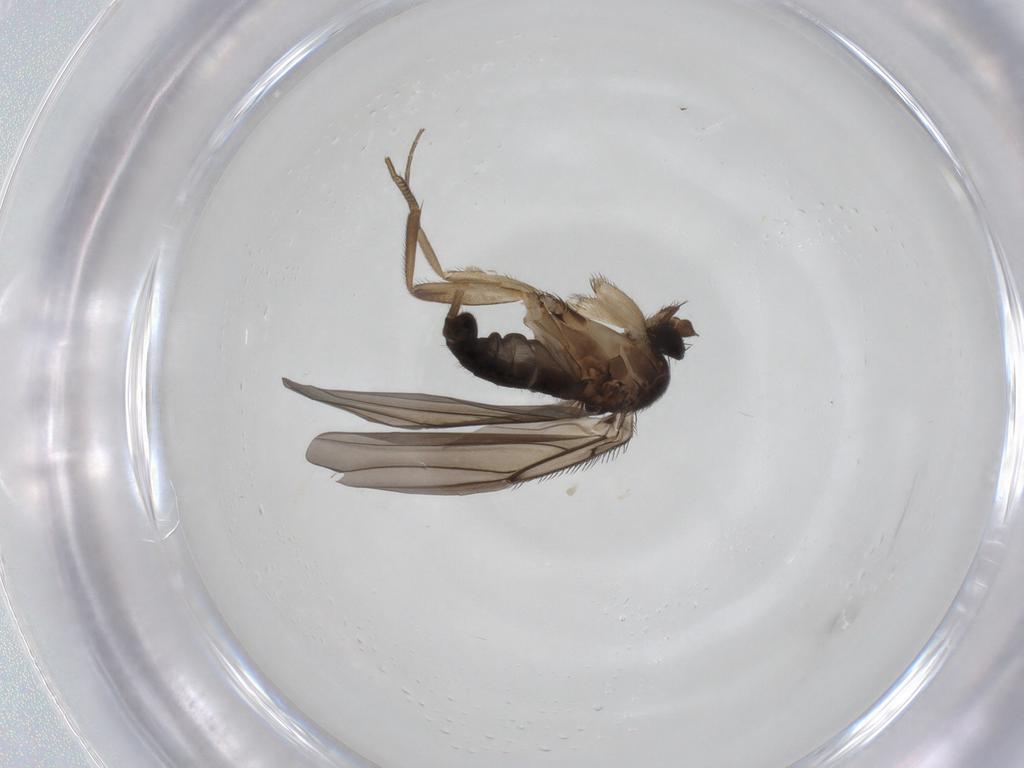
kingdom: Animalia
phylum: Arthropoda
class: Insecta
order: Diptera
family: Phoridae
